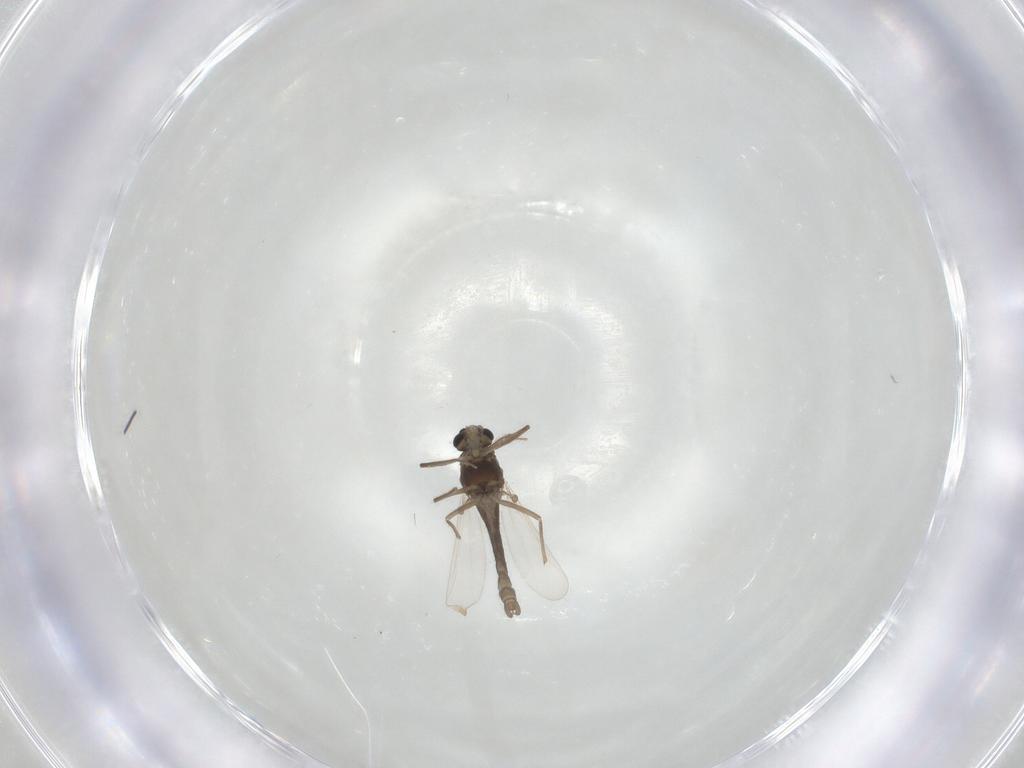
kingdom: Animalia
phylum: Arthropoda
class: Insecta
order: Diptera
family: Chironomidae
